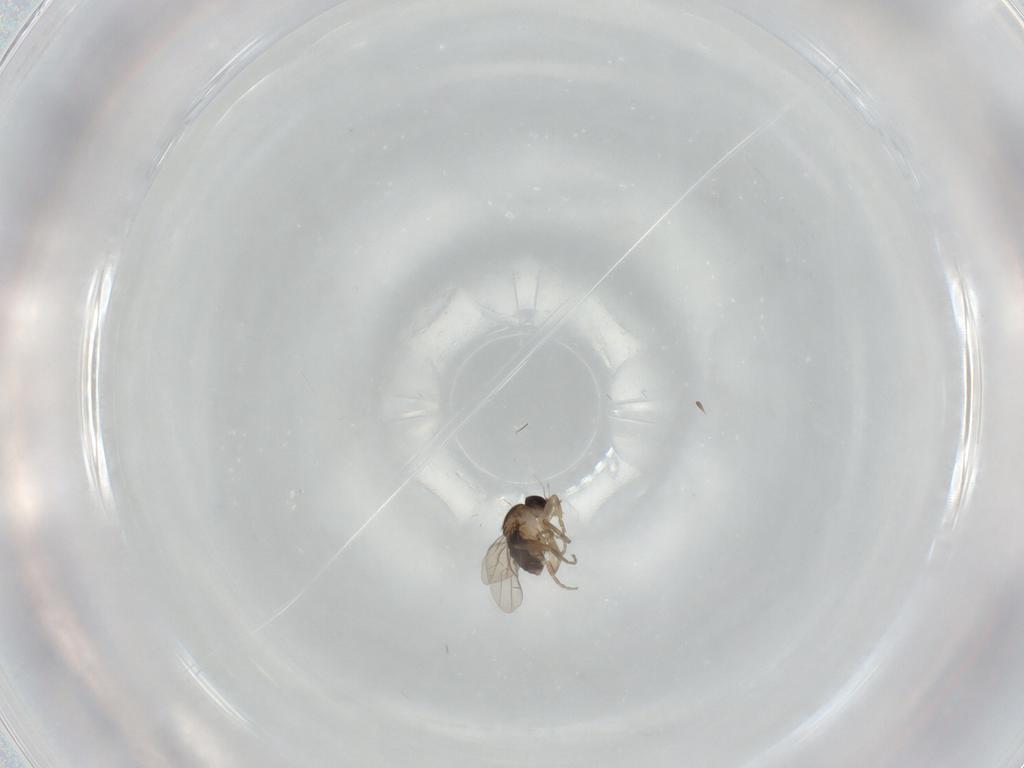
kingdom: Animalia
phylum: Arthropoda
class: Insecta
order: Diptera
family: Phoridae
